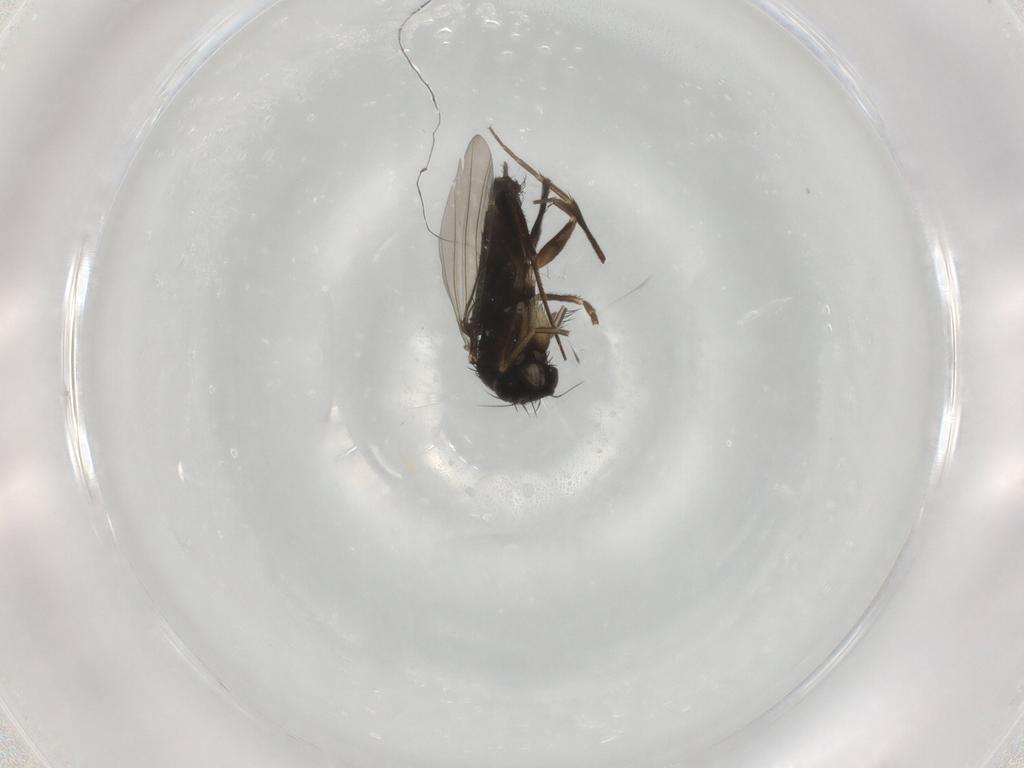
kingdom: Animalia
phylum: Arthropoda
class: Insecta
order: Diptera
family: Phoridae
